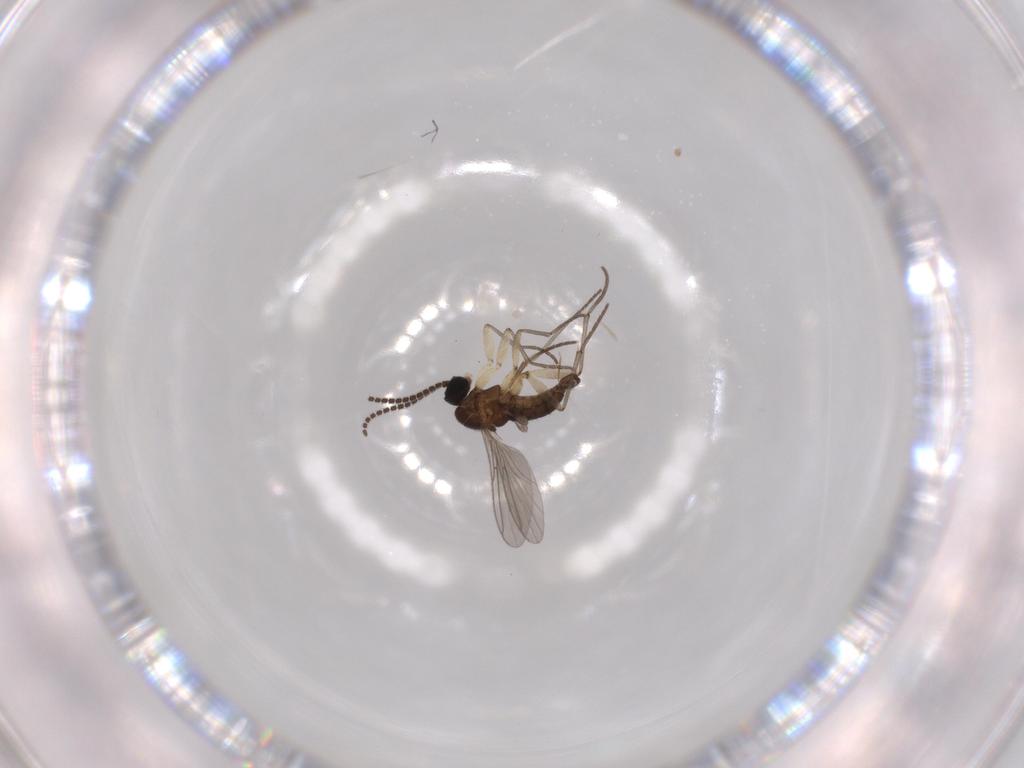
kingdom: Animalia
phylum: Arthropoda
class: Insecta
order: Diptera
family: Sciaridae
